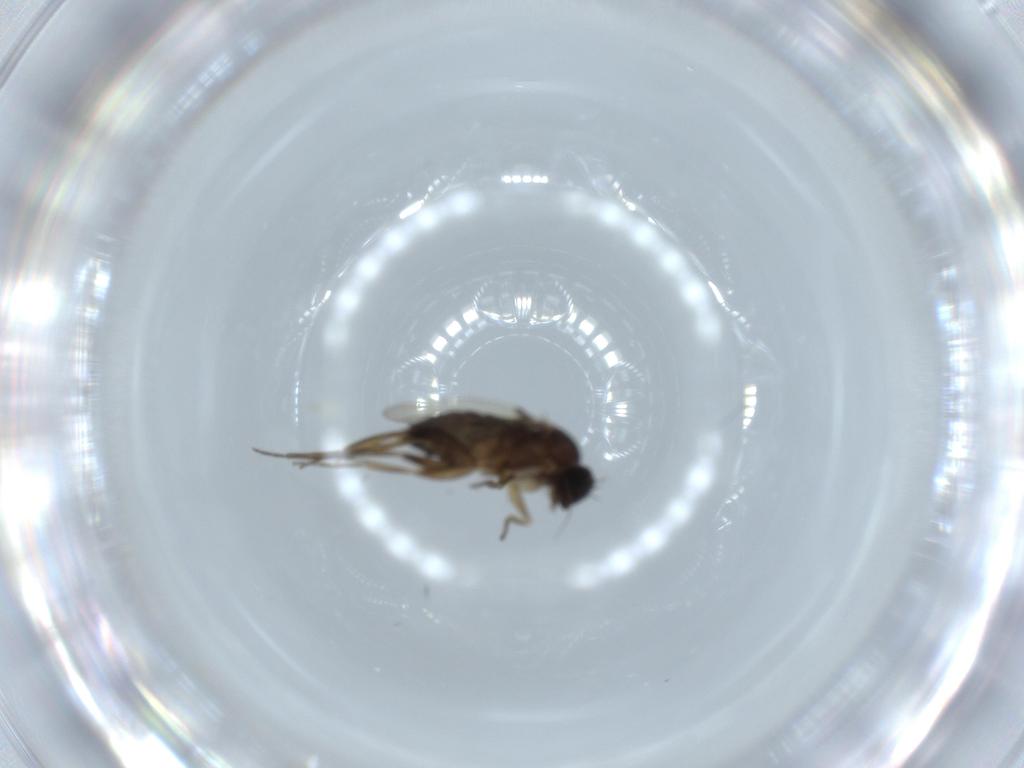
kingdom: Animalia
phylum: Arthropoda
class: Insecta
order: Diptera
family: Phoridae
